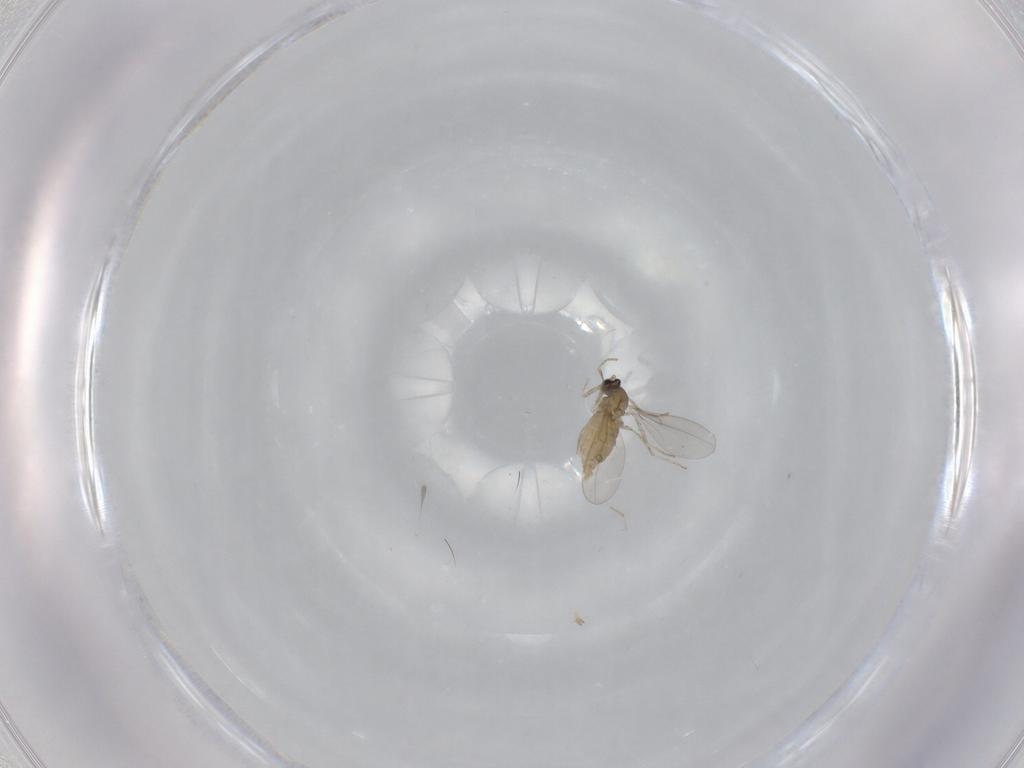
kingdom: Animalia
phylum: Arthropoda
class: Insecta
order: Diptera
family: Cecidomyiidae
